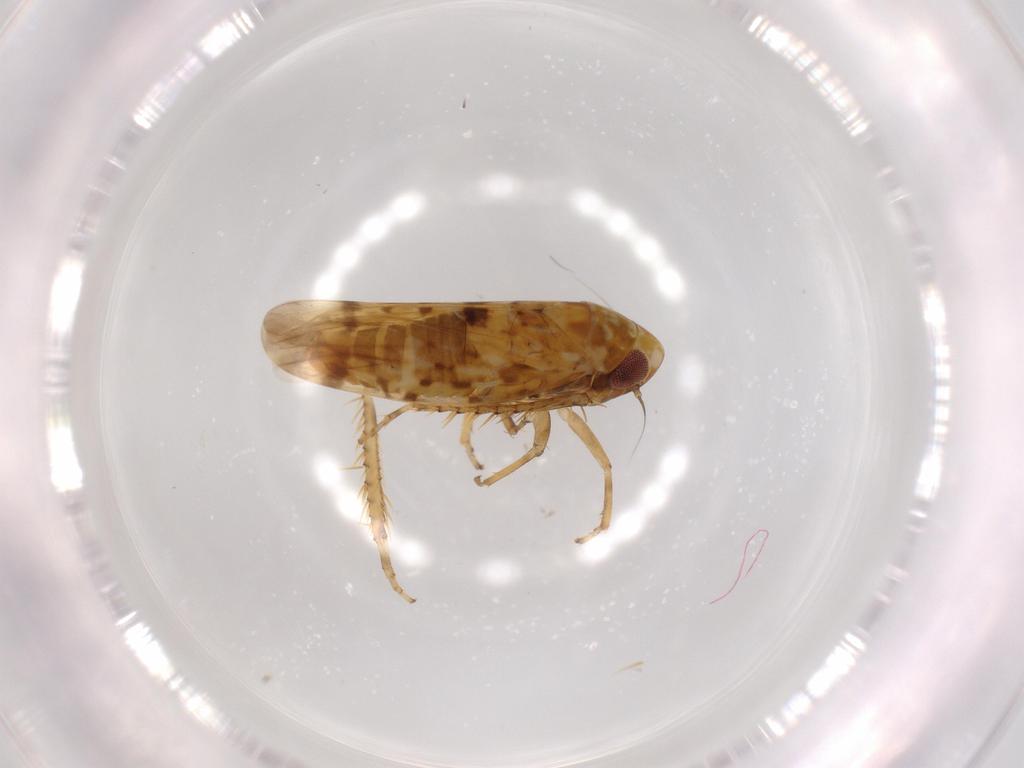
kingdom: Animalia
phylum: Arthropoda
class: Insecta
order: Hemiptera
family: Cicadellidae
